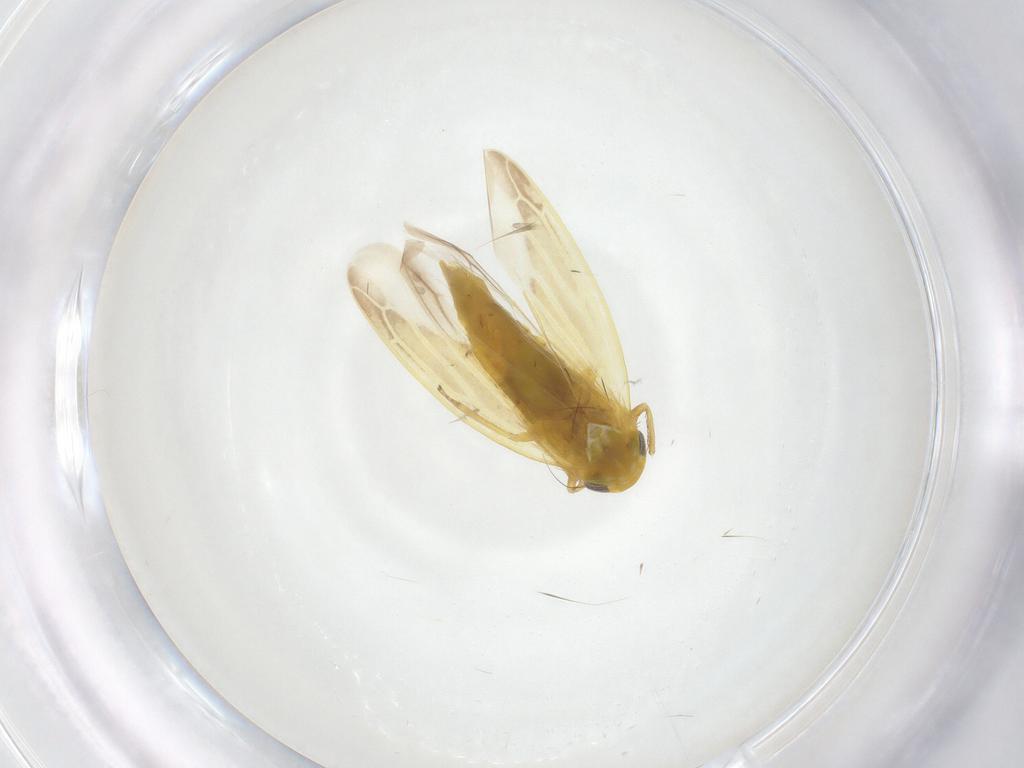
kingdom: Animalia
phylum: Arthropoda
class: Insecta
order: Hemiptera
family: Cicadellidae
